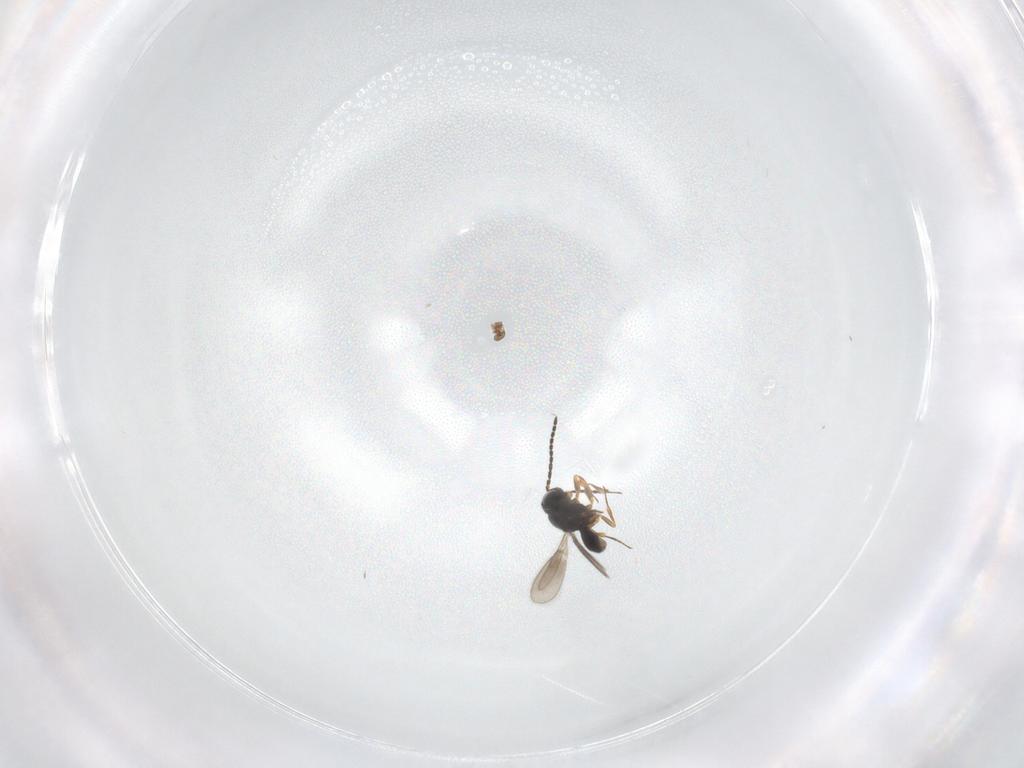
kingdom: Animalia
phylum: Arthropoda
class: Insecta
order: Hymenoptera
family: Scelionidae
